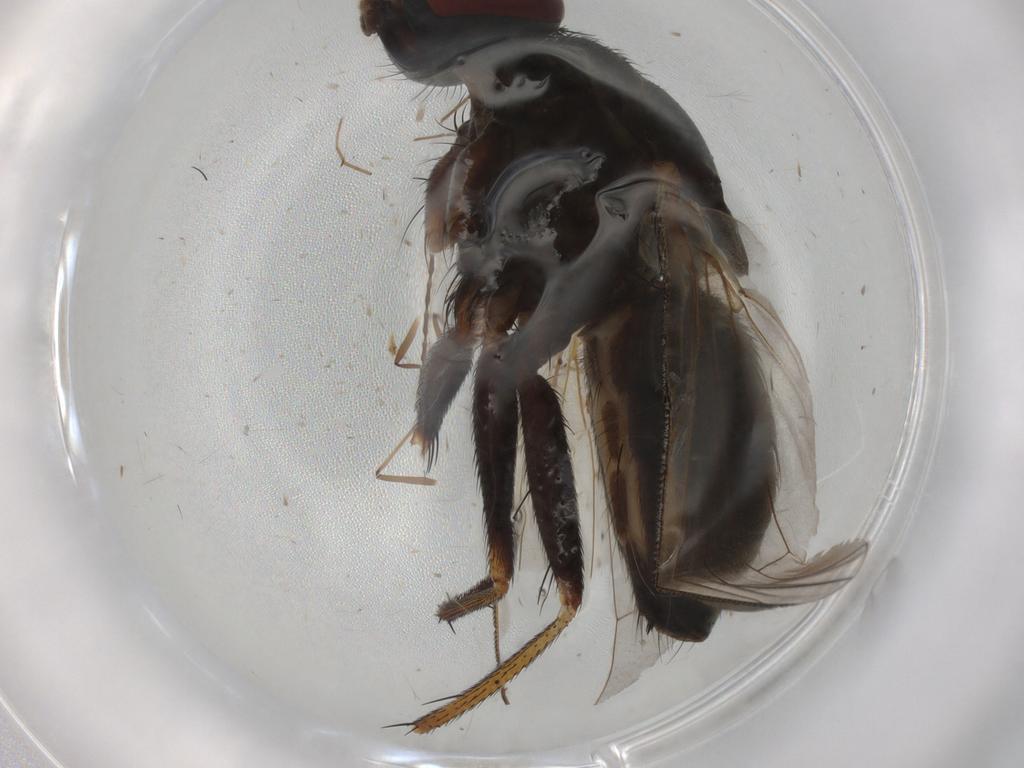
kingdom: Animalia
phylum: Arthropoda
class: Insecta
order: Diptera
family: Muscidae
